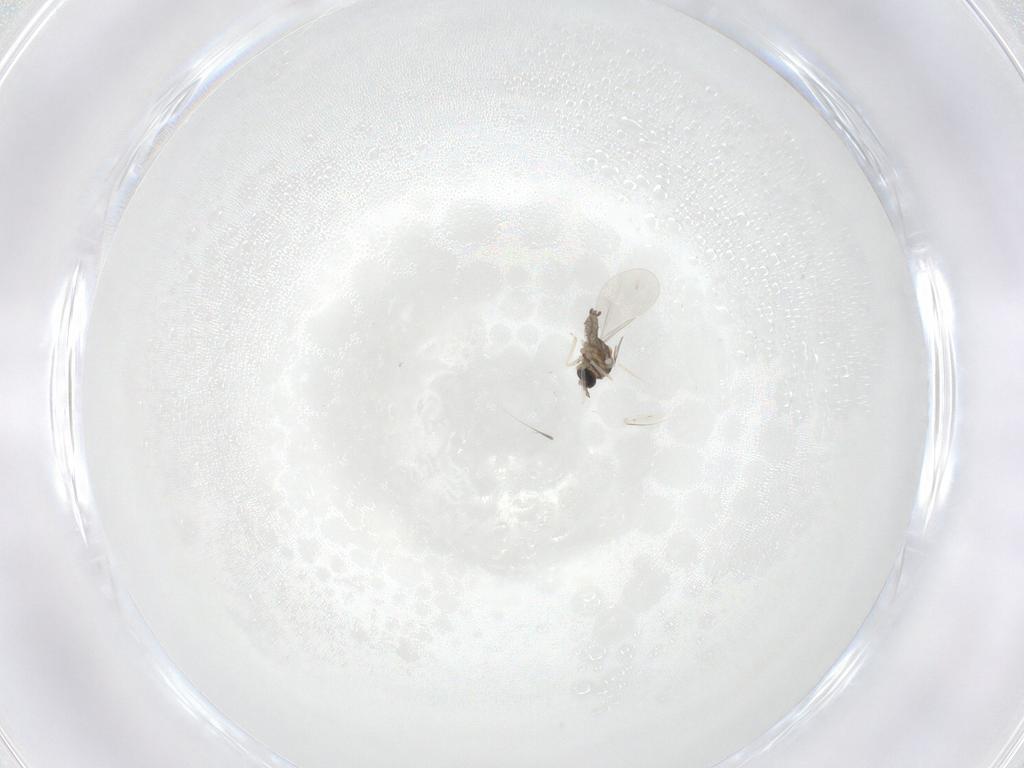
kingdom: Animalia
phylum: Arthropoda
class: Insecta
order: Diptera
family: Cecidomyiidae
